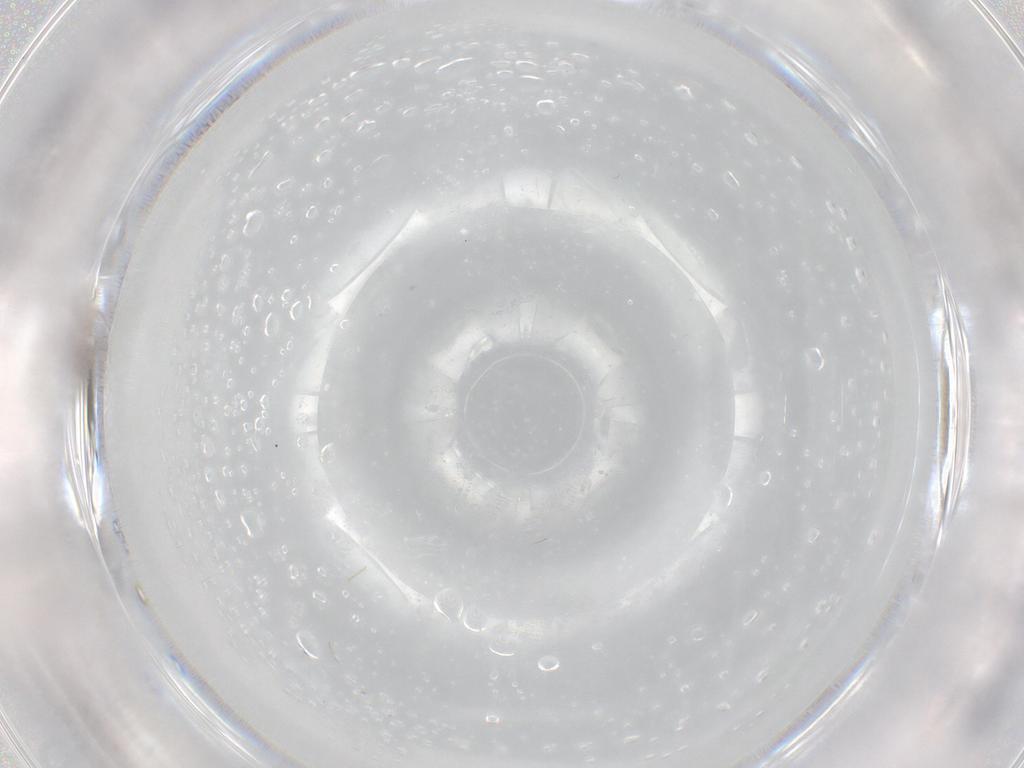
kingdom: Animalia
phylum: Arthropoda
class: Insecta
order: Diptera
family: Cecidomyiidae
